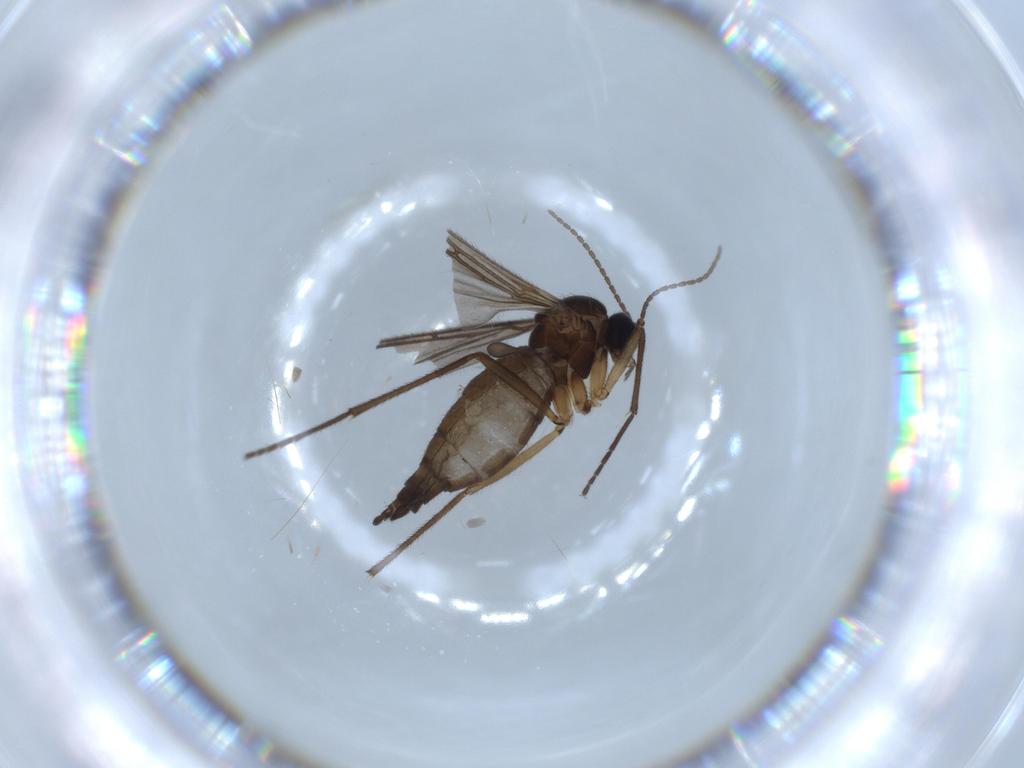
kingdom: Animalia
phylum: Arthropoda
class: Insecta
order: Diptera
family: Sciaridae
